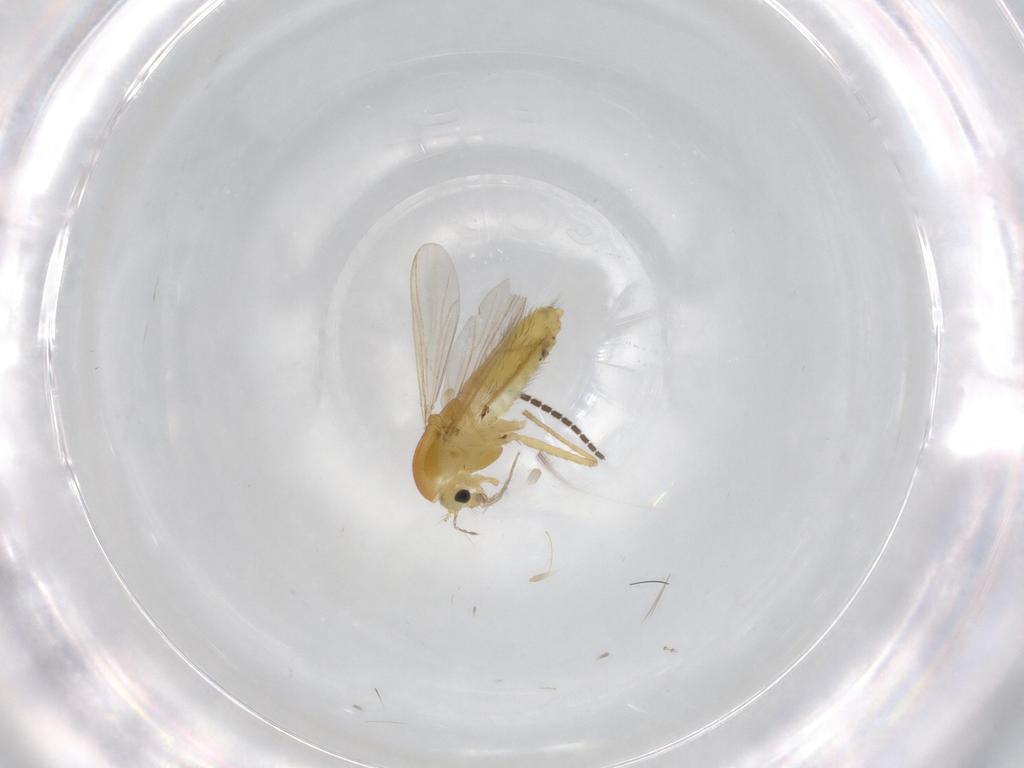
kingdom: Animalia
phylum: Arthropoda
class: Insecta
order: Diptera
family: Chironomidae
